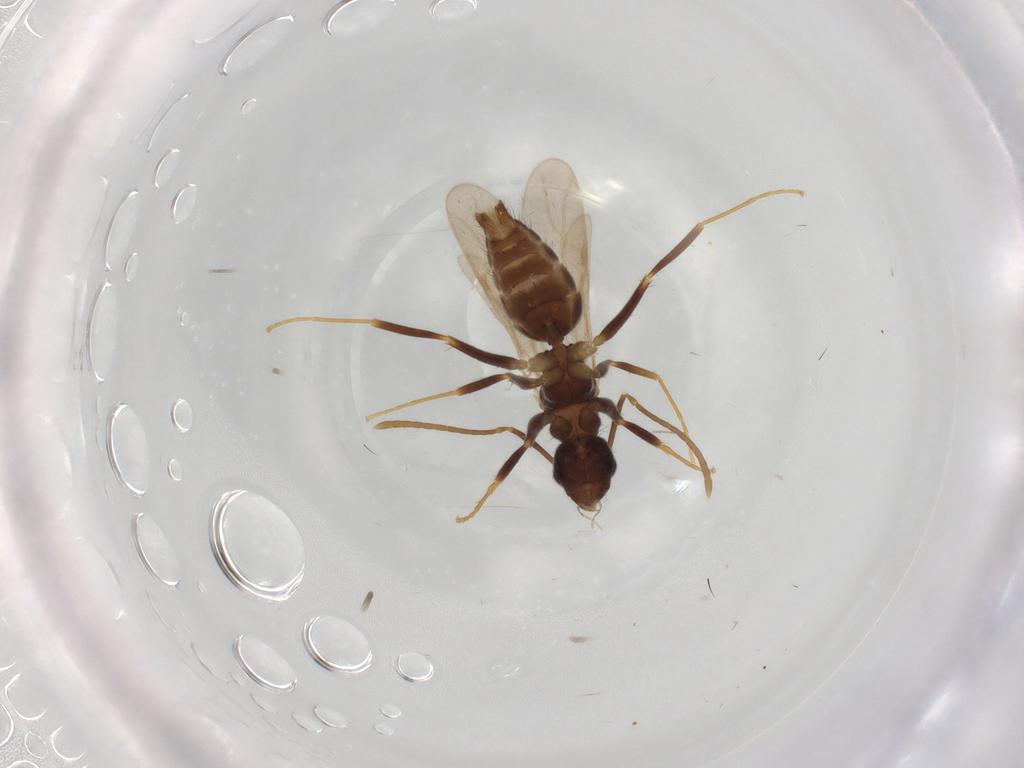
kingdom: Animalia
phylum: Arthropoda
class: Insecta
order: Hymenoptera
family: Formicidae
